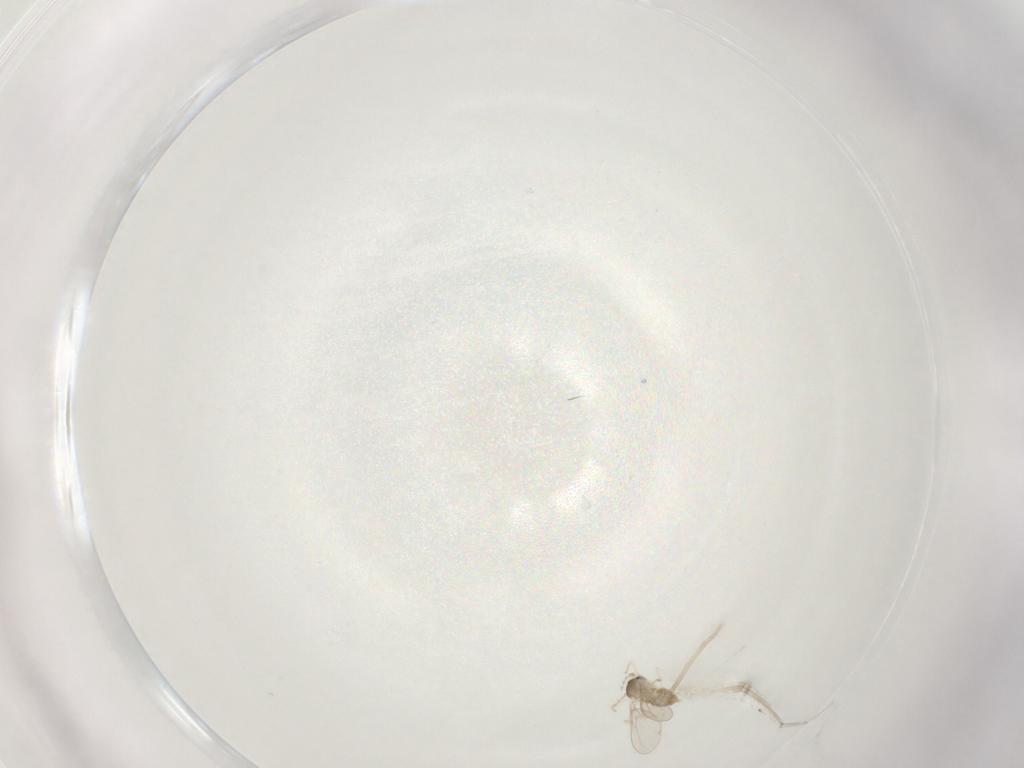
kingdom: Animalia
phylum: Arthropoda
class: Insecta
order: Diptera
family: Cecidomyiidae
